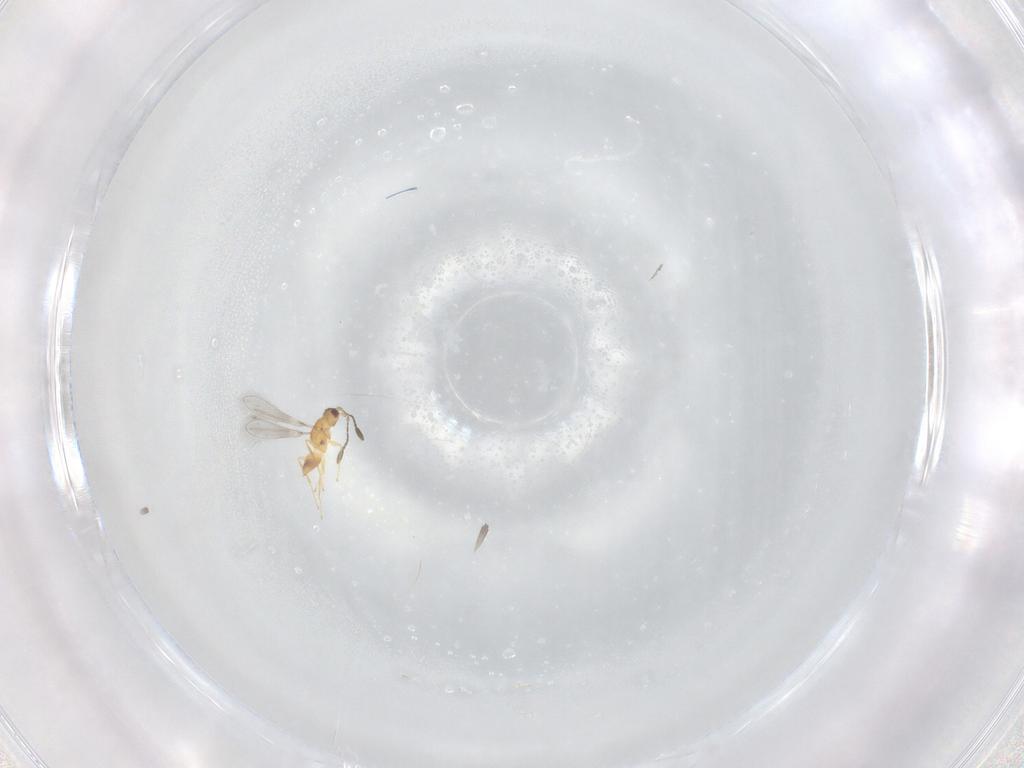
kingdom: Animalia
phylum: Arthropoda
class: Insecta
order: Hymenoptera
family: Mymaridae
